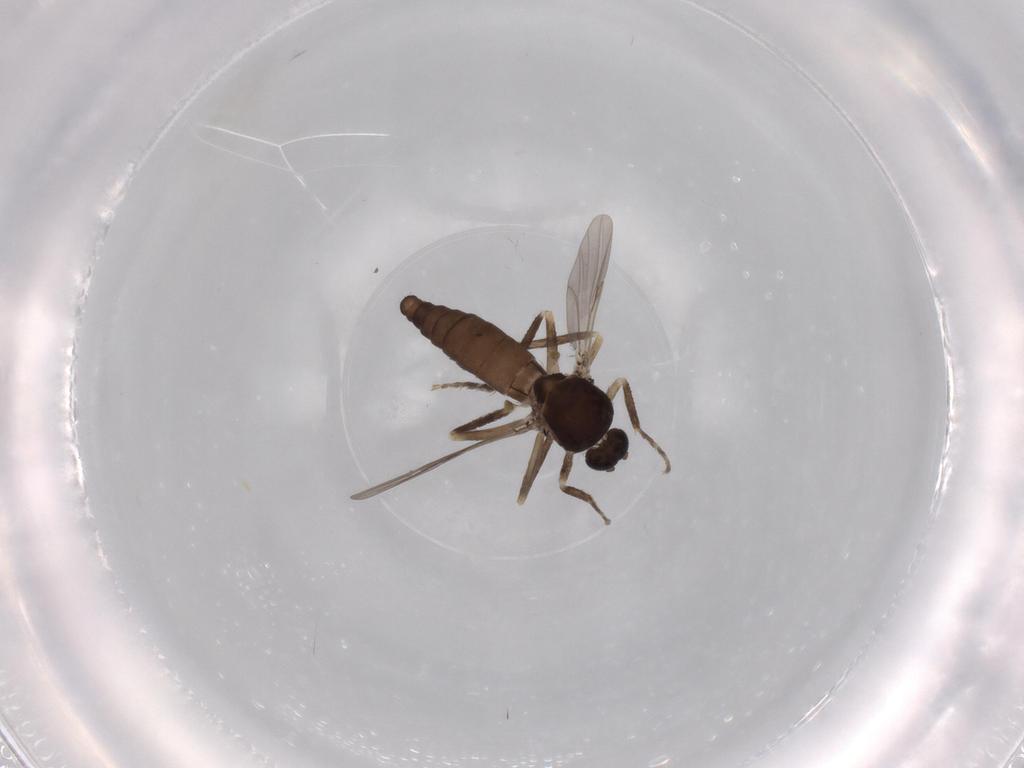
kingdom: Animalia
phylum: Arthropoda
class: Insecta
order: Diptera
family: Ceratopogonidae
